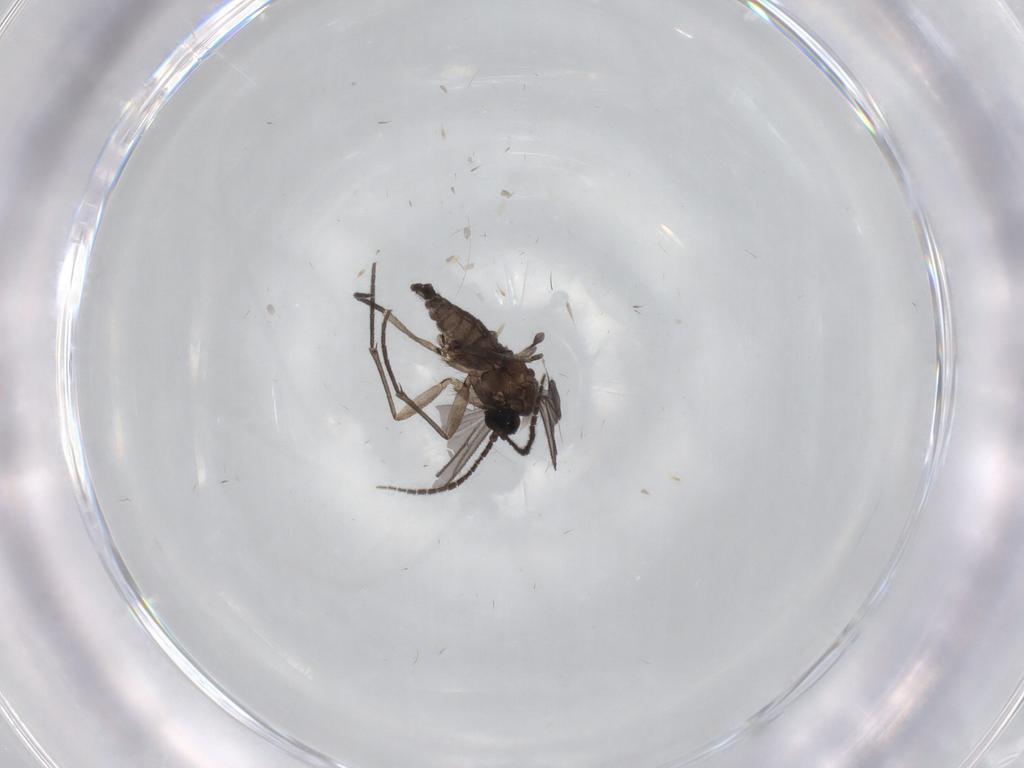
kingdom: Animalia
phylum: Arthropoda
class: Insecta
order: Diptera
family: Sciaridae
